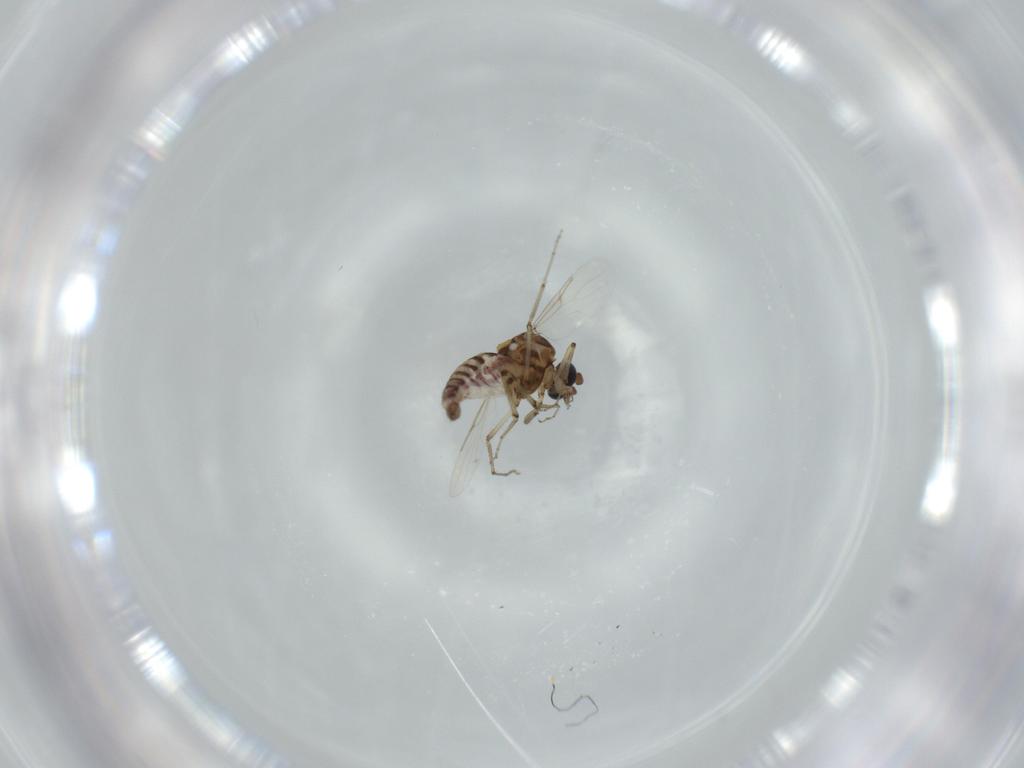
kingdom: Animalia
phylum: Arthropoda
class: Insecta
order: Diptera
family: Ceratopogonidae
